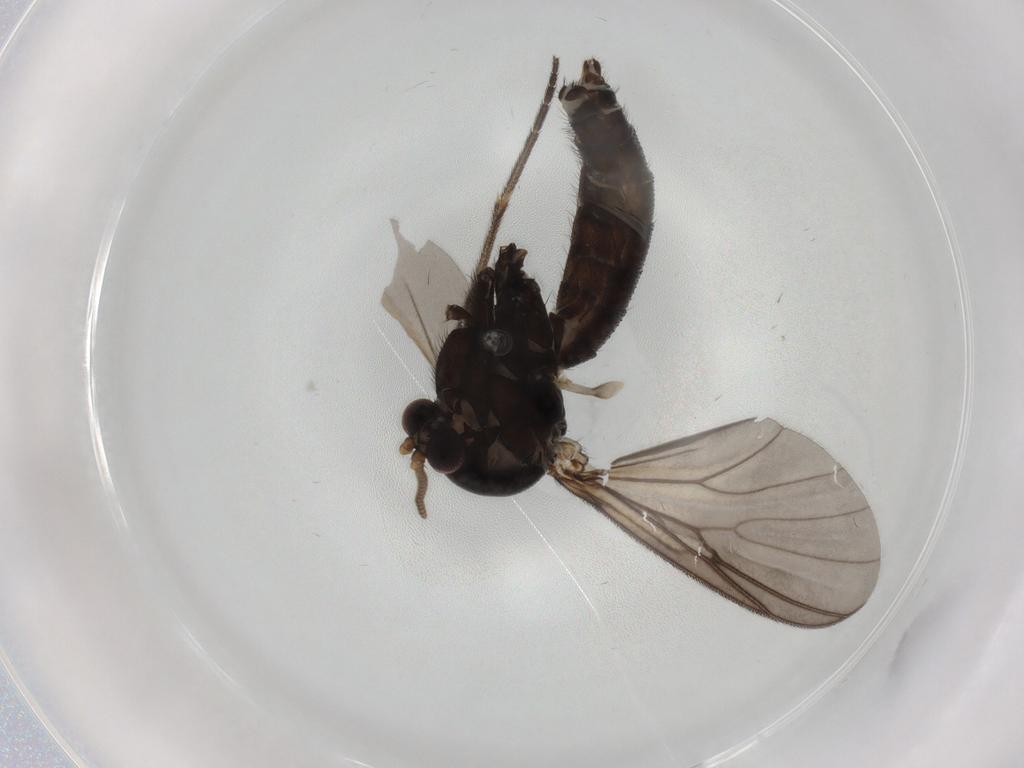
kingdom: Animalia
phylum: Arthropoda
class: Insecta
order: Diptera
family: Mycetophilidae
